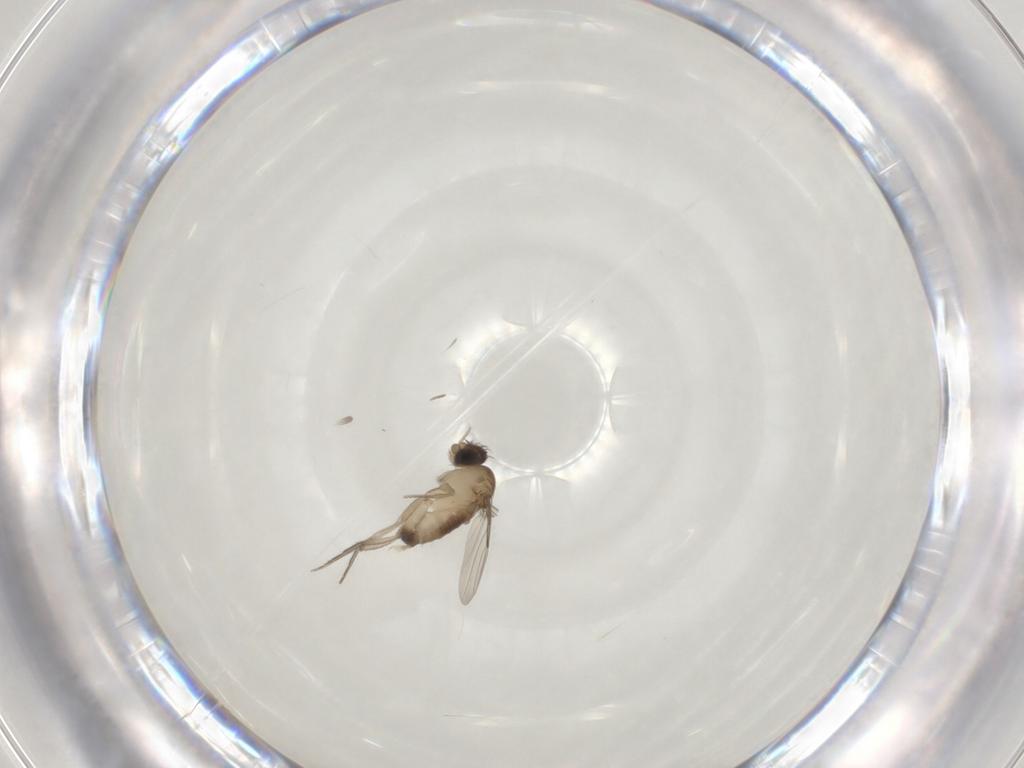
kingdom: Animalia
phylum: Arthropoda
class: Insecta
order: Diptera
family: Phoridae
